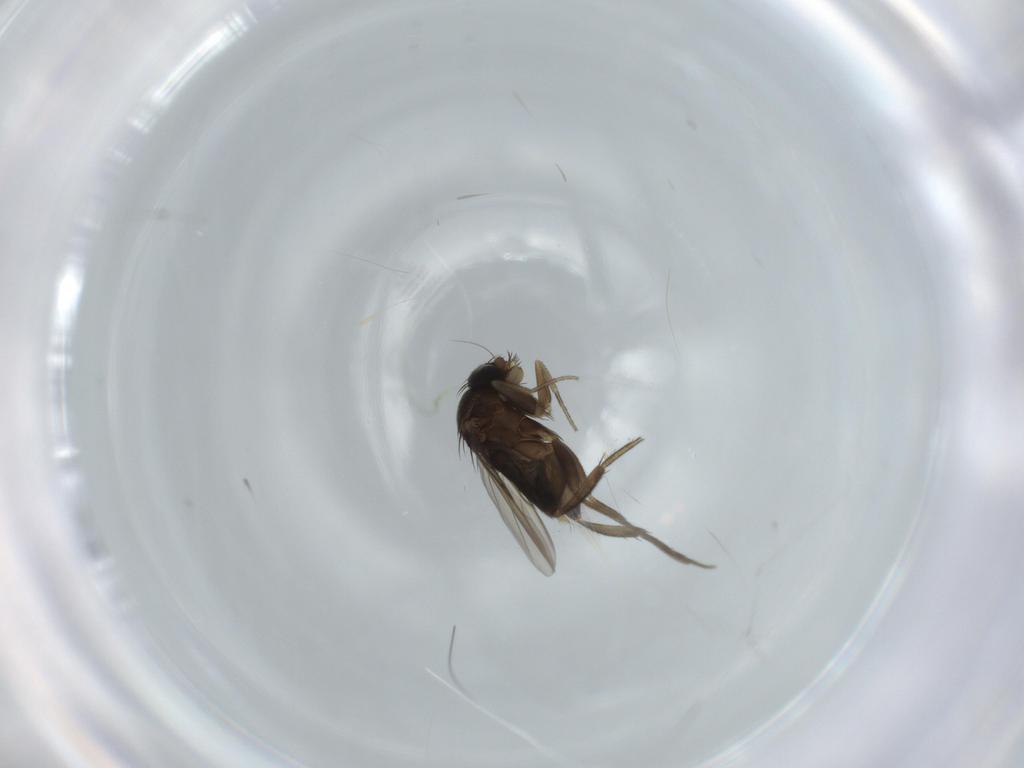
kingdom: Animalia
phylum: Arthropoda
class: Insecta
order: Diptera
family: Phoridae
